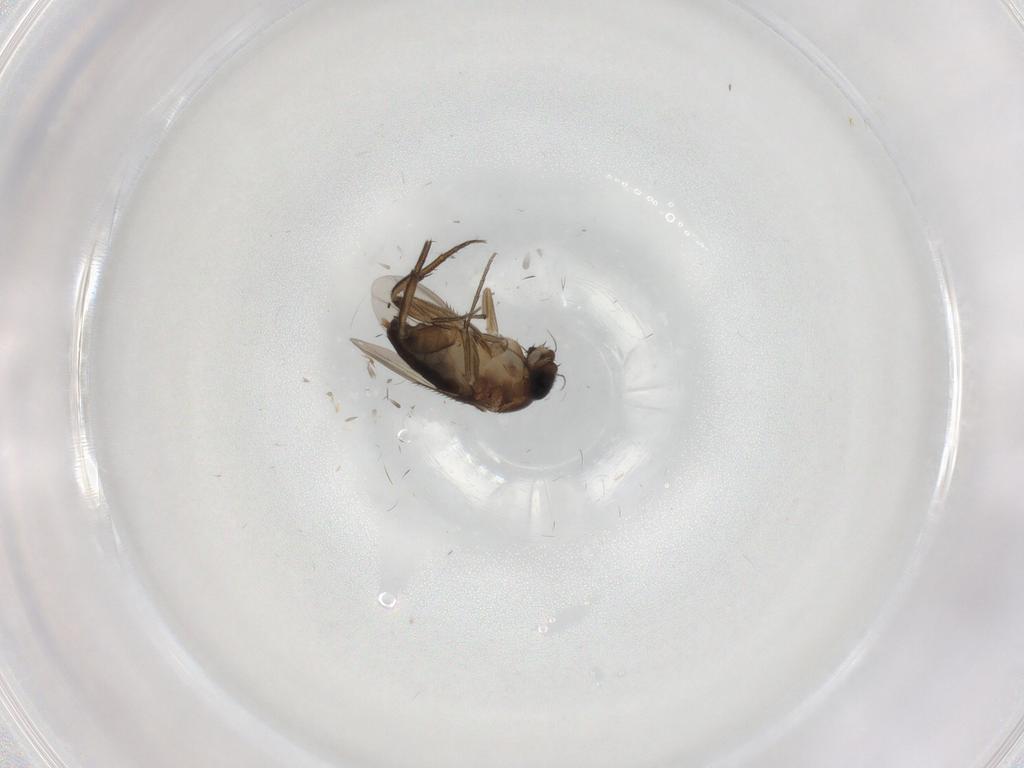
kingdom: Animalia
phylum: Arthropoda
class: Insecta
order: Diptera
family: Phoridae
